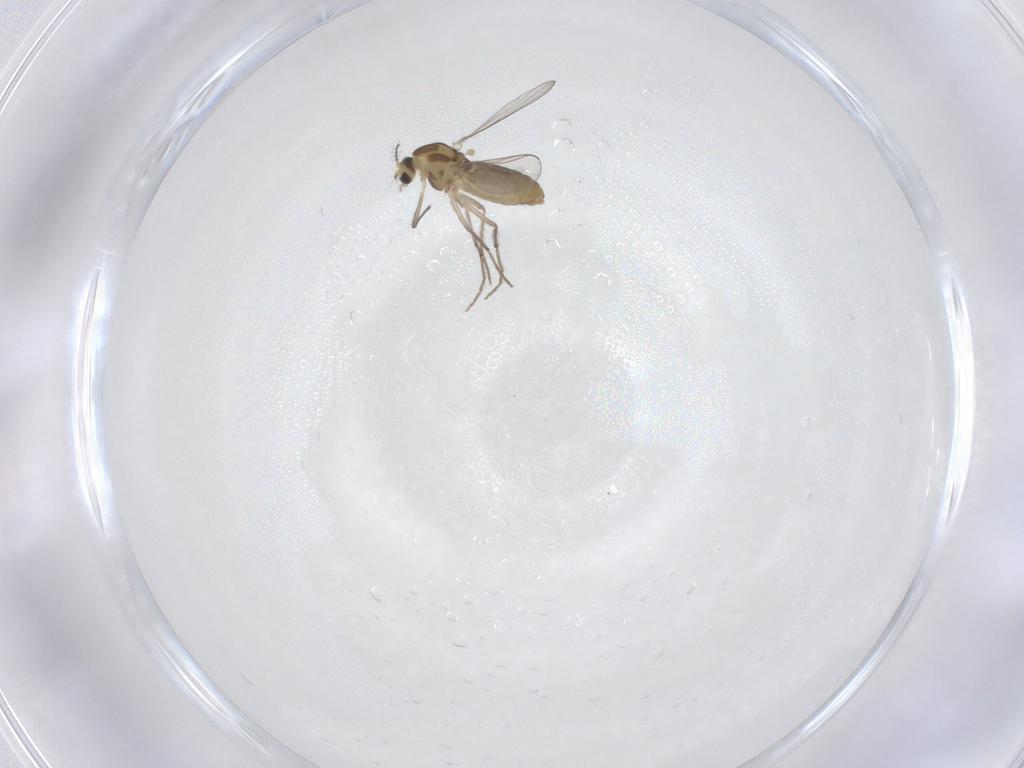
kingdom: Animalia
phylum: Arthropoda
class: Insecta
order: Diptera
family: Chironomidae
